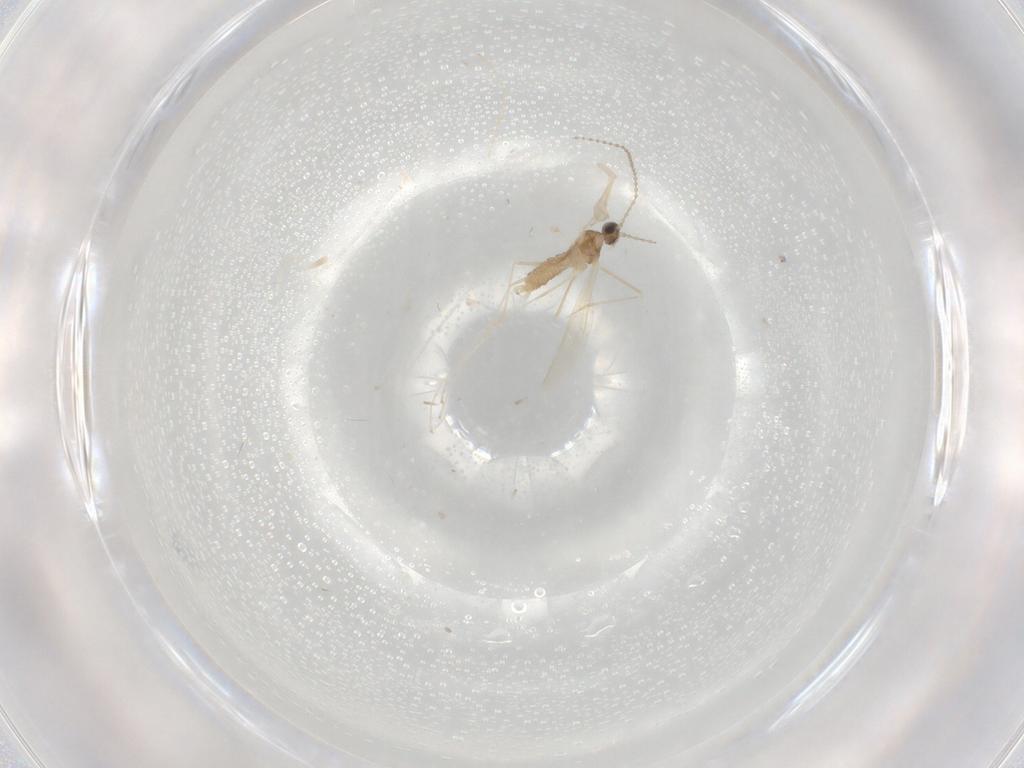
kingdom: Animalia
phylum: Arthropoda
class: Insecta
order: Diptera
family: Cecidomyiidae
